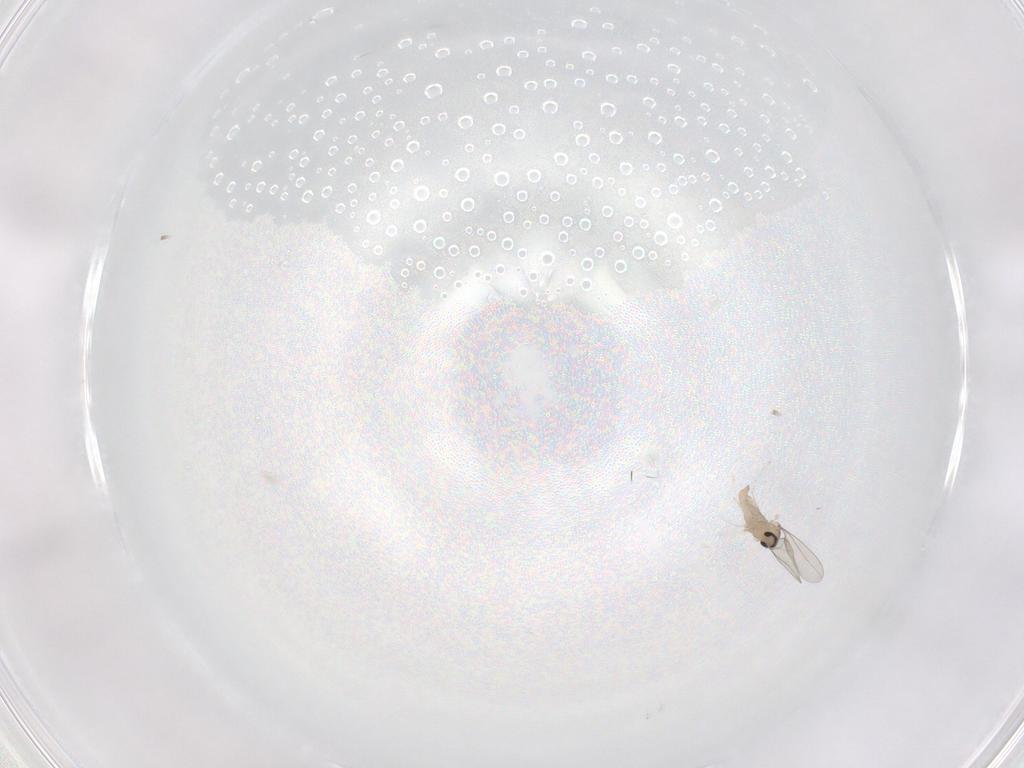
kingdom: Animalia
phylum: Arthropoda
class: Insecta
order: Diptera
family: Cecidomyiidae
